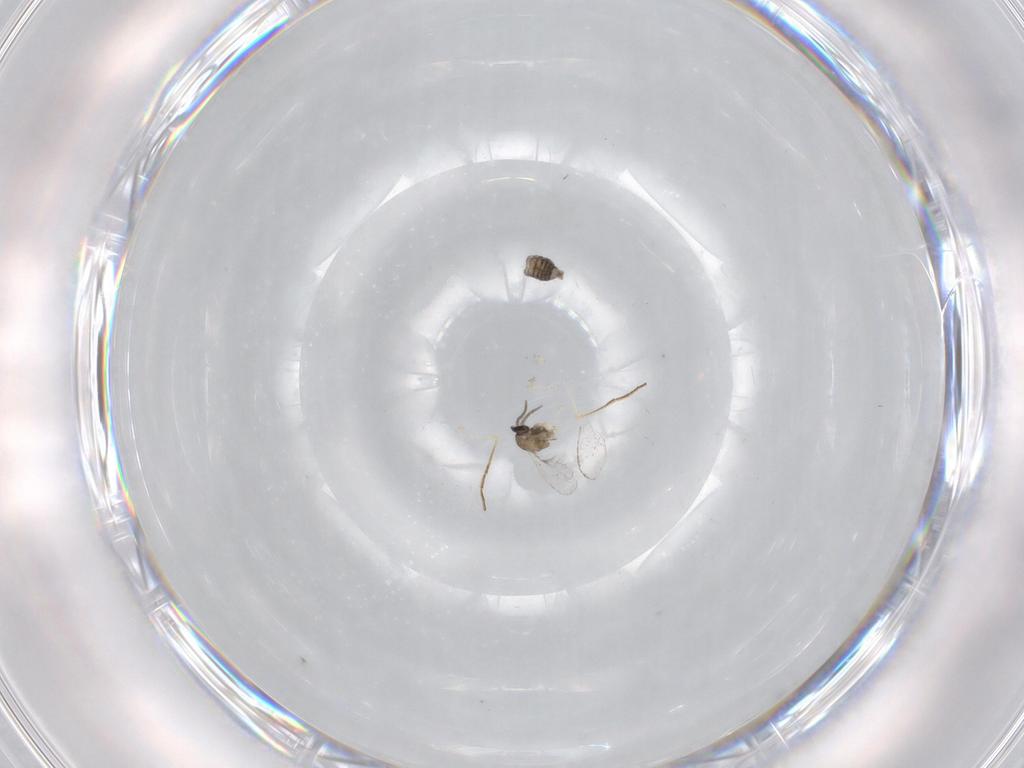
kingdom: Animalia
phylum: Arthropoda
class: Insecta
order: Diptera
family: Cecidomyiidae
